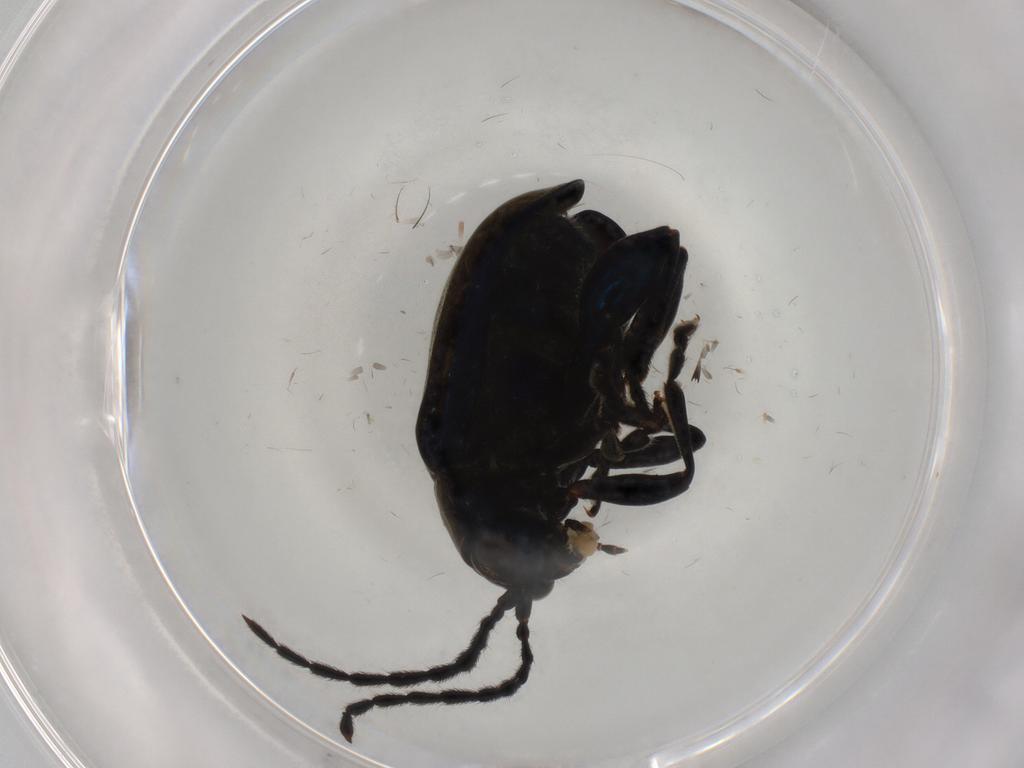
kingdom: Animalia
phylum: Arthropoda
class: Insecta
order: Coleoptera
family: Chrysomelidae
